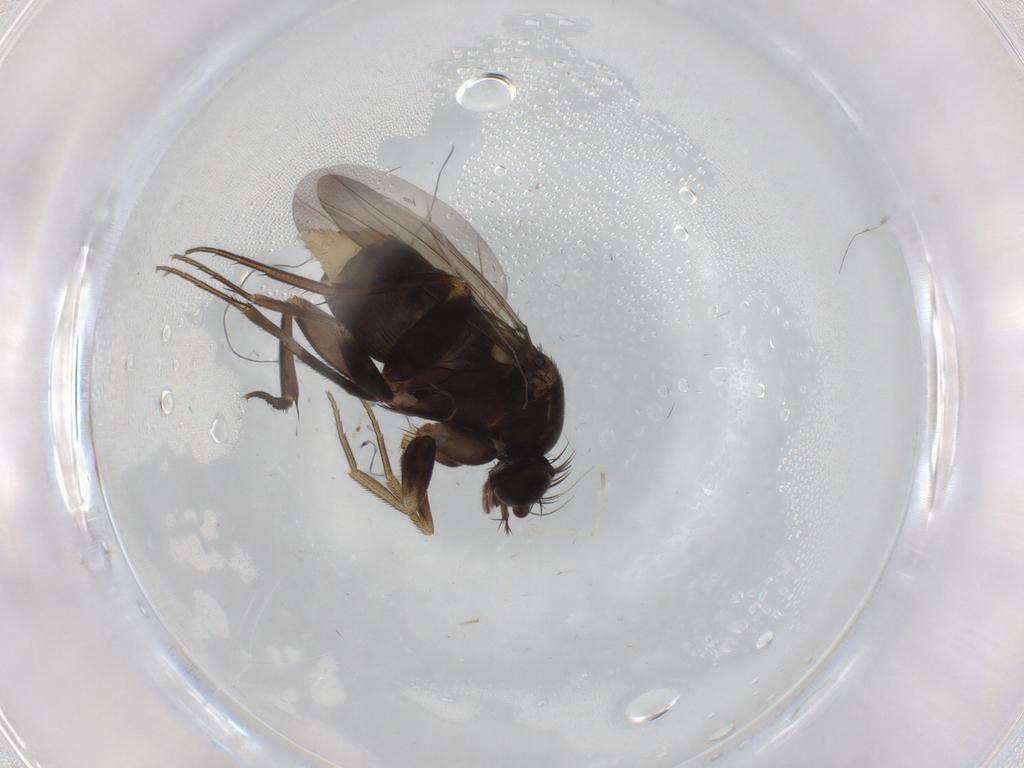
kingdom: Animalia
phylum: Arthropoda
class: Insecta
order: Diptera
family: Phoridae
